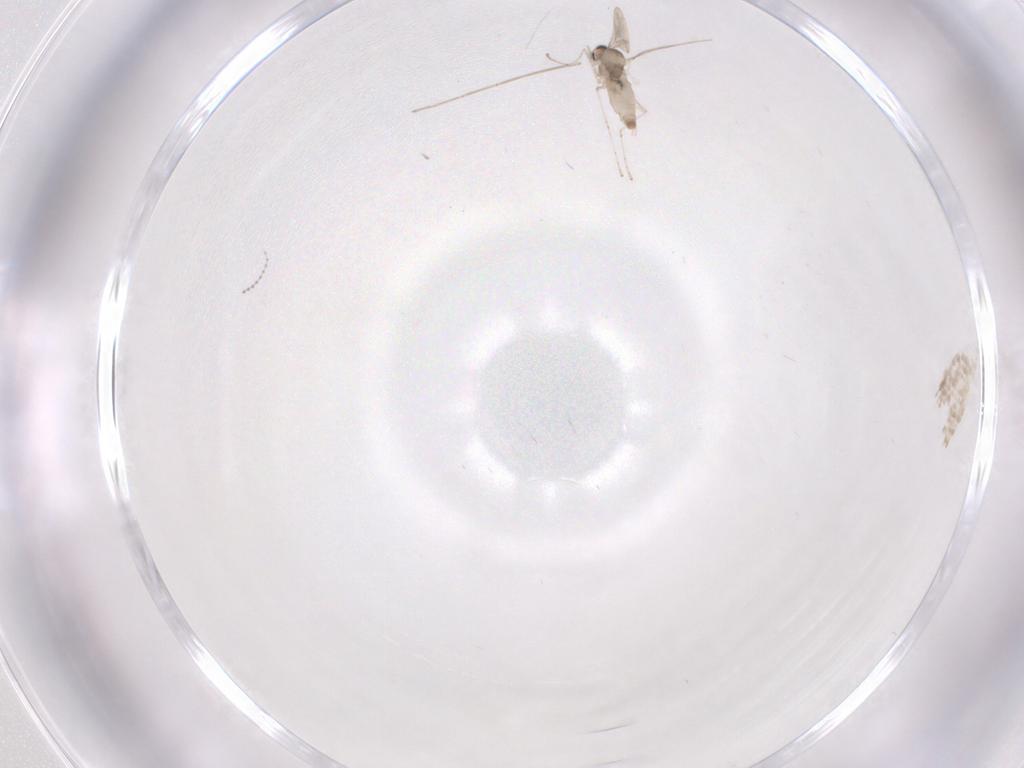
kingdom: Animalia
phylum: Arthropoda
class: Insecta
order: Diptera
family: Cecidomyiidae
